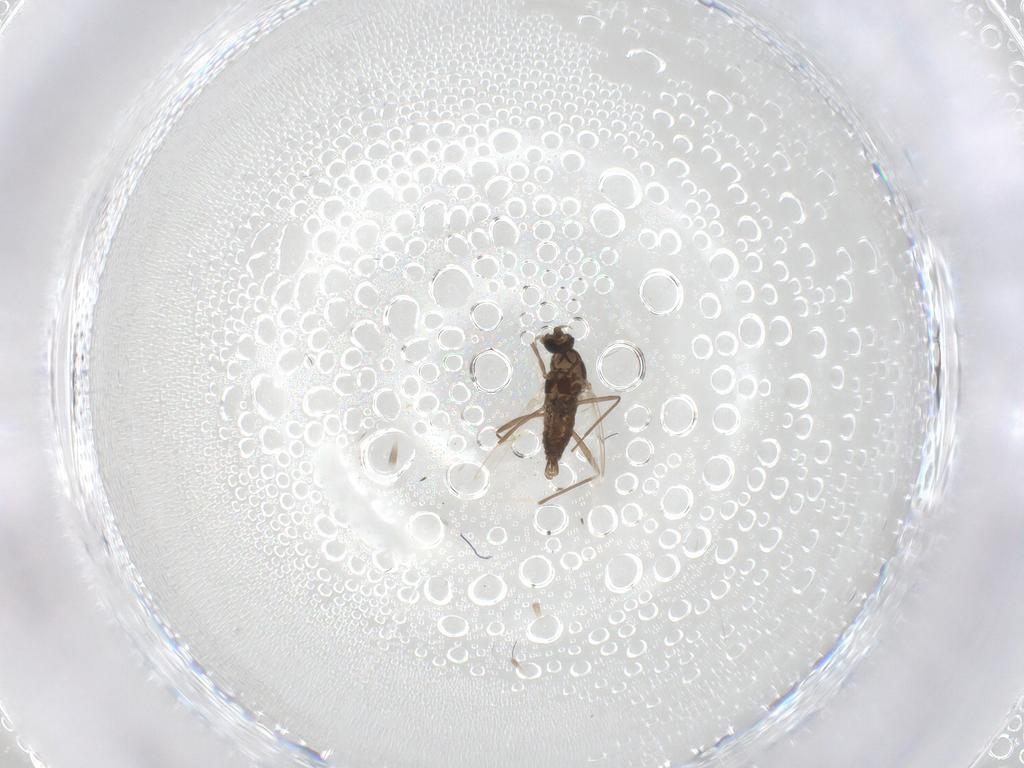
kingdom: Animalia
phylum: Arthropoda
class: Insecta
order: Diptera
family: Cecidomyiidae
